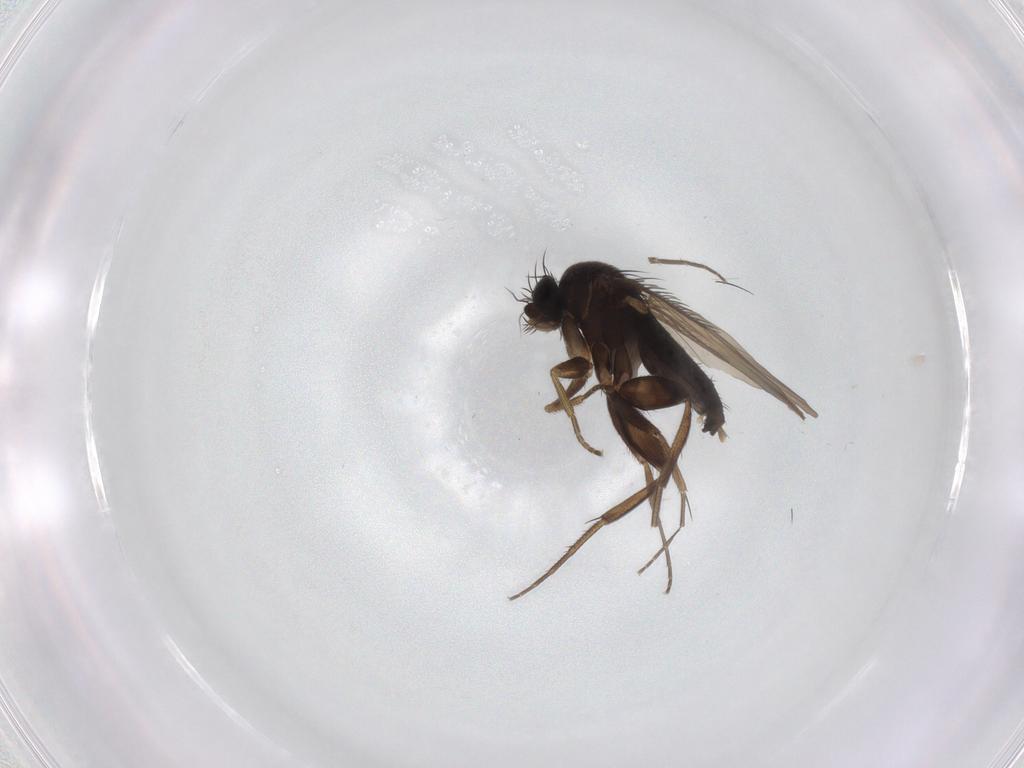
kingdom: Animalia
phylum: Arthropoda
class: Insecta
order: Diptera
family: Phoridae
